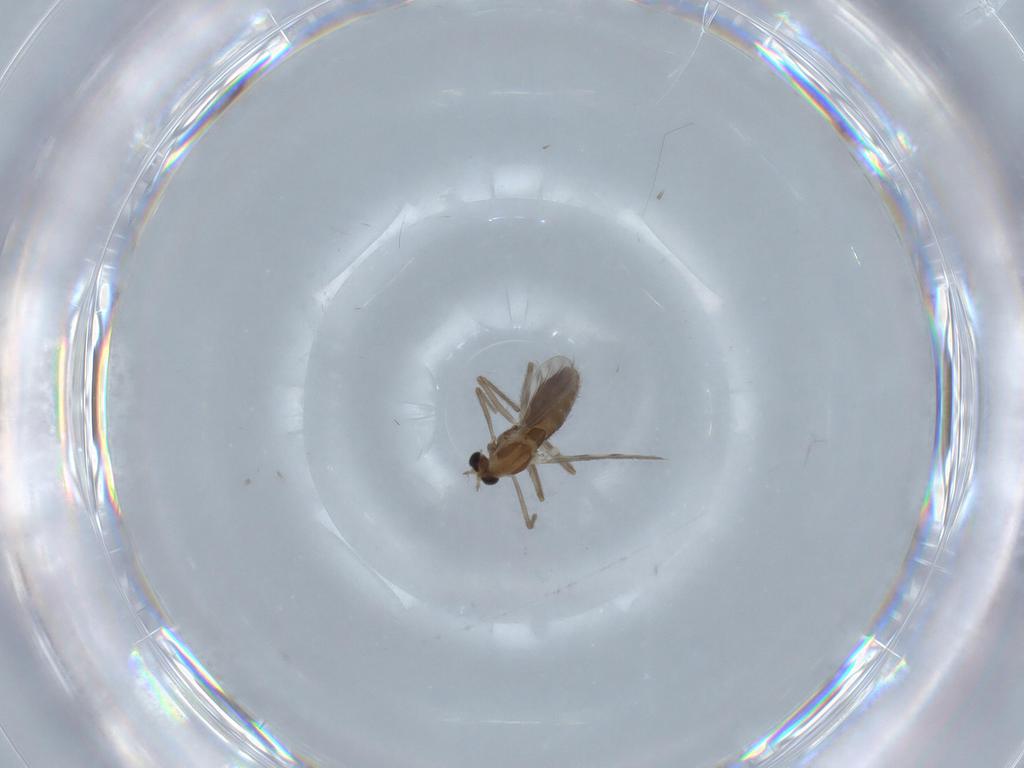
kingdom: Animalia
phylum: Arthropoda
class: Insecta
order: Diptera
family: Chironomidae
